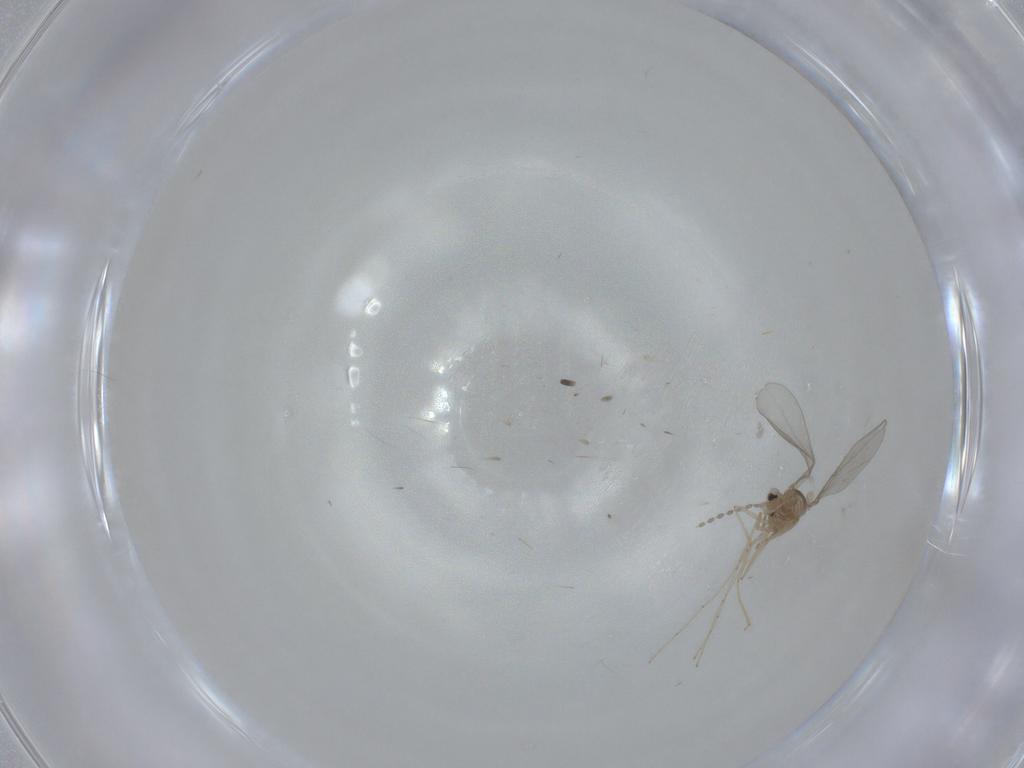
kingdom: Animalia
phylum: Arthropoda
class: Insecta
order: Diptera
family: Cecidomyiidae
